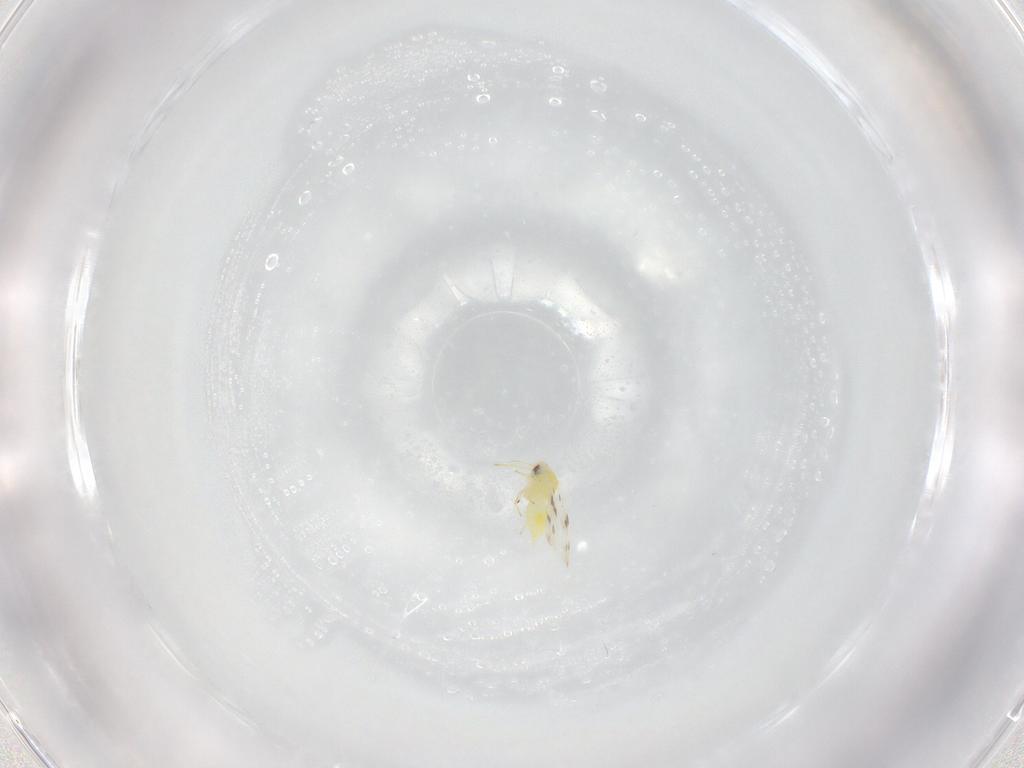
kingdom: Animalia
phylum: Arthropoda
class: Insecta
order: Hemiptera
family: Aleyrodidae
